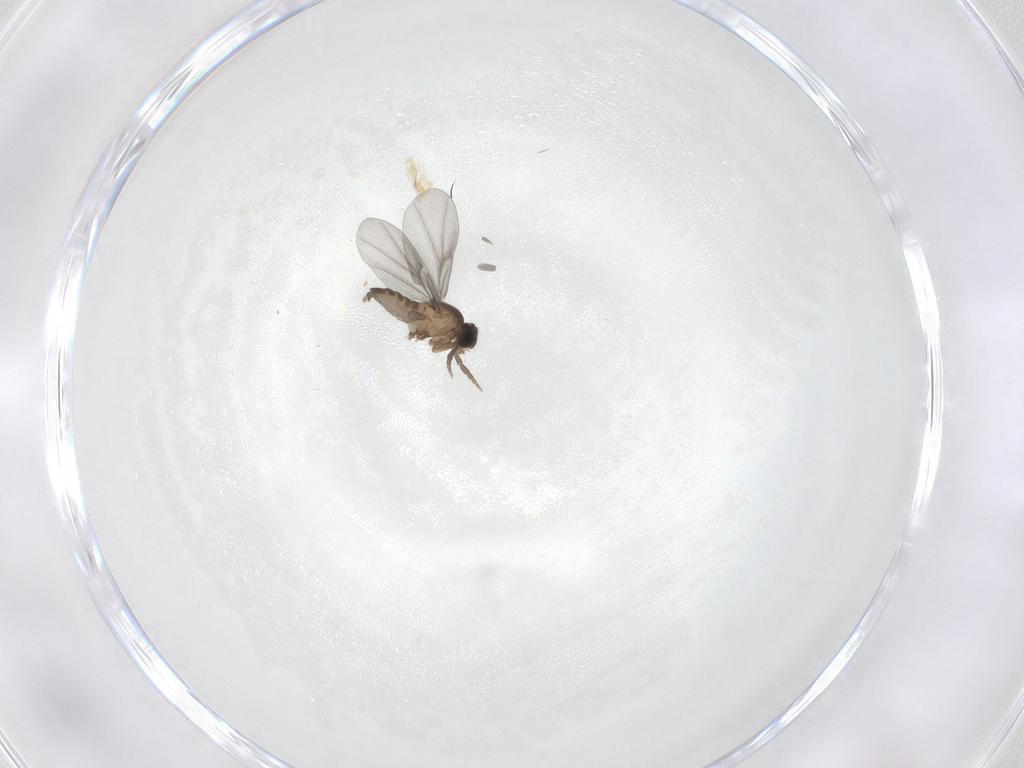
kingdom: Animalia
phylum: Arthropoda
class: Insecta
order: Diptera
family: Phoridae
